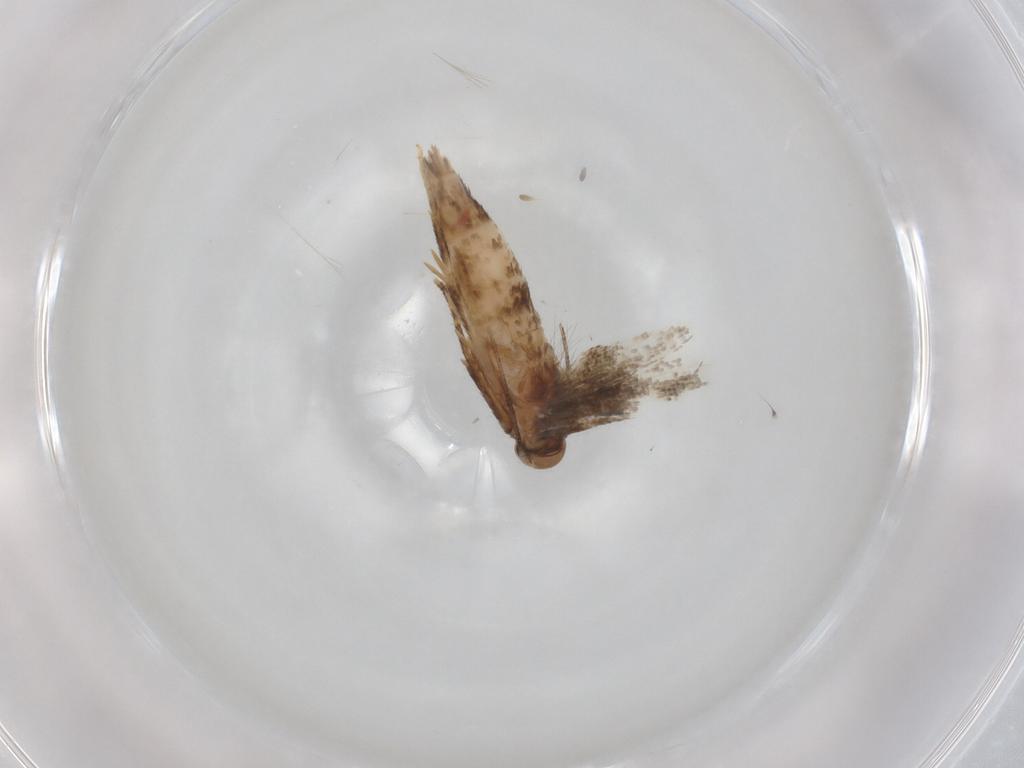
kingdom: Animalia
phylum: Arthropoda
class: Insecta
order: Lepidoptera
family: Elachistidae
